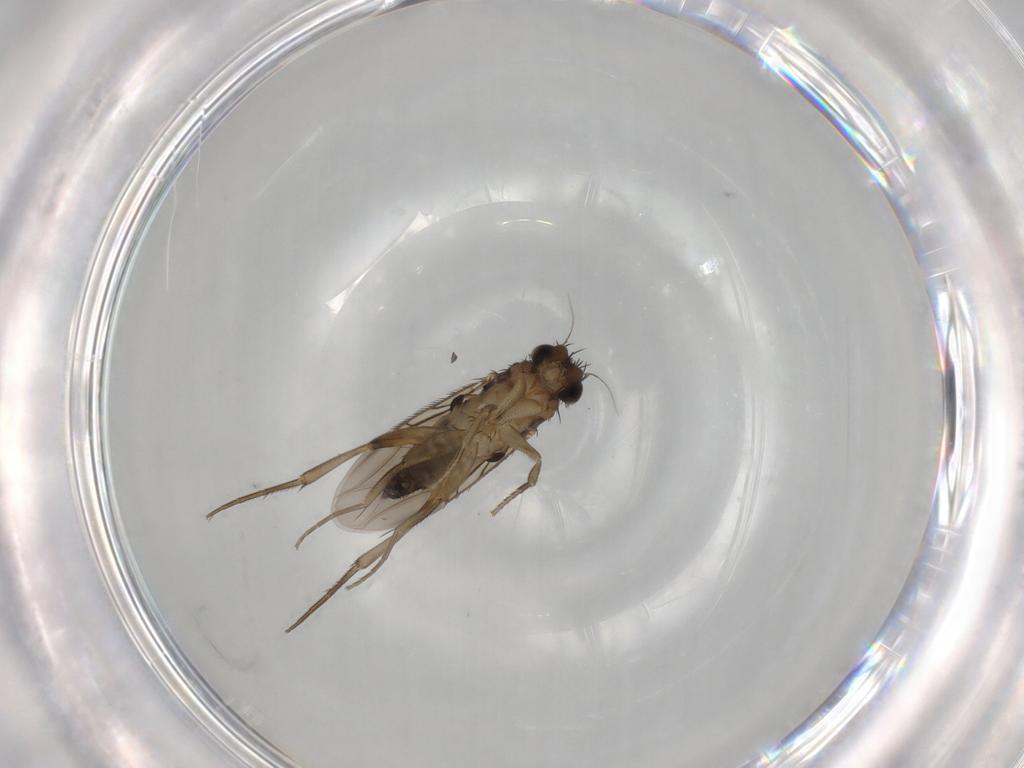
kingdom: Animalia
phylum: Arthropoda
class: Insecta
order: Diptera
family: Phoridae
